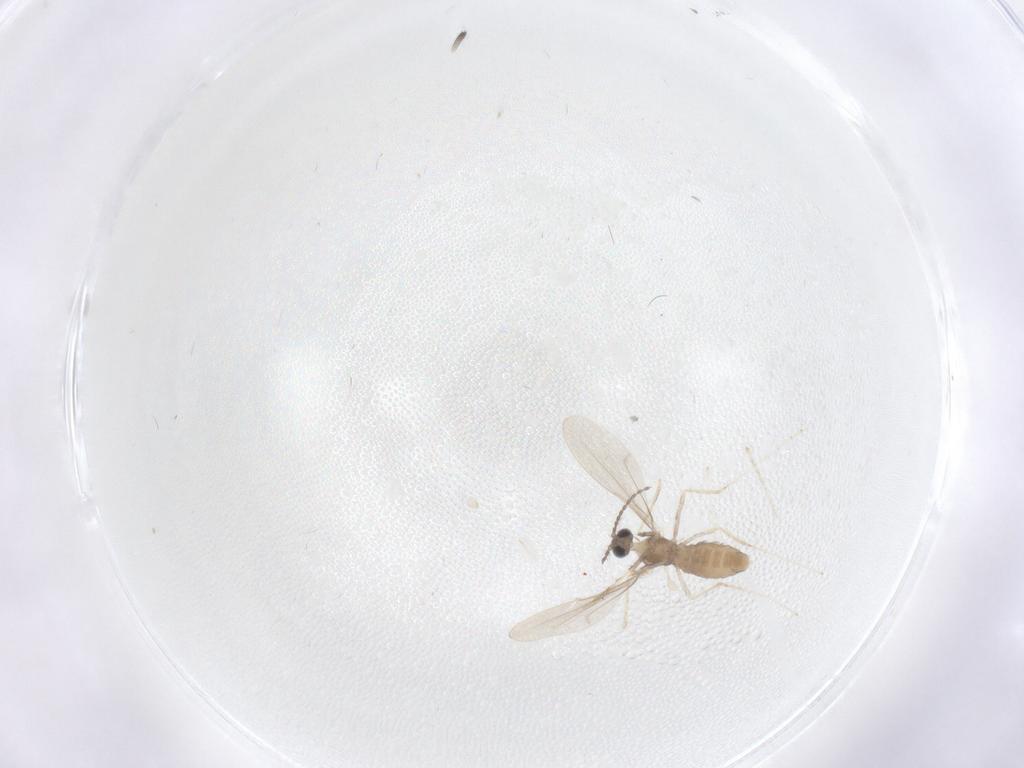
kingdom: Animalia
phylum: Arthropoda
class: Insecta
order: Diptera
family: Cecidomyiidae
